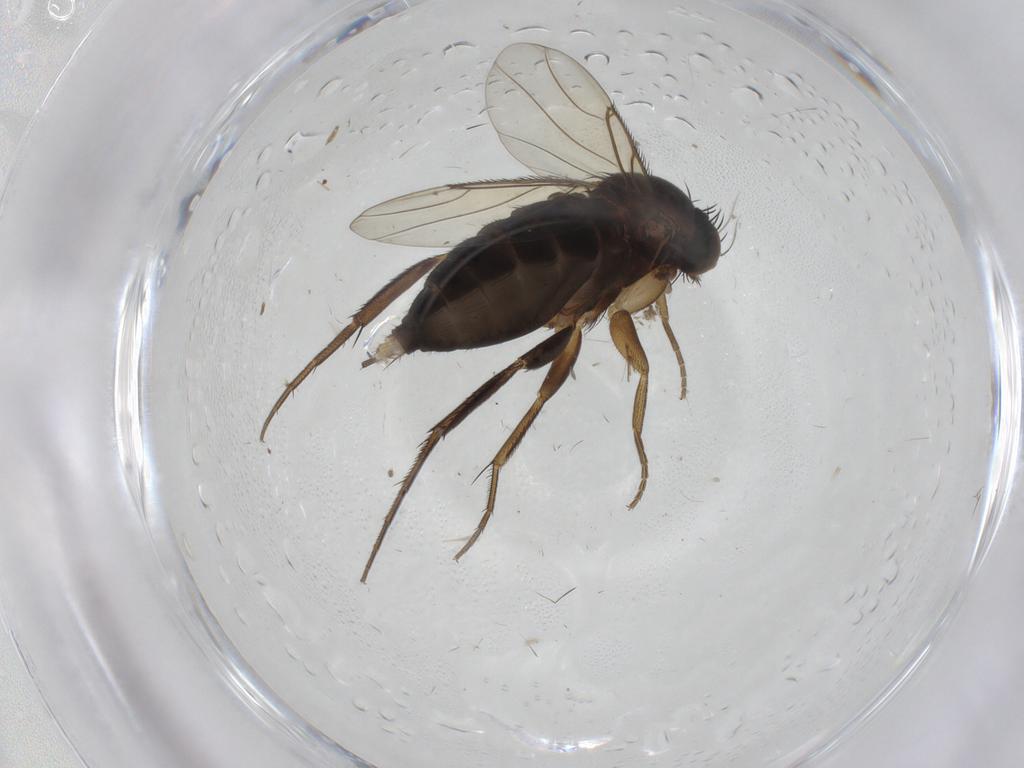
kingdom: Animalia
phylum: Arthropoda
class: Insecta
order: Diptera
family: Phoridae
